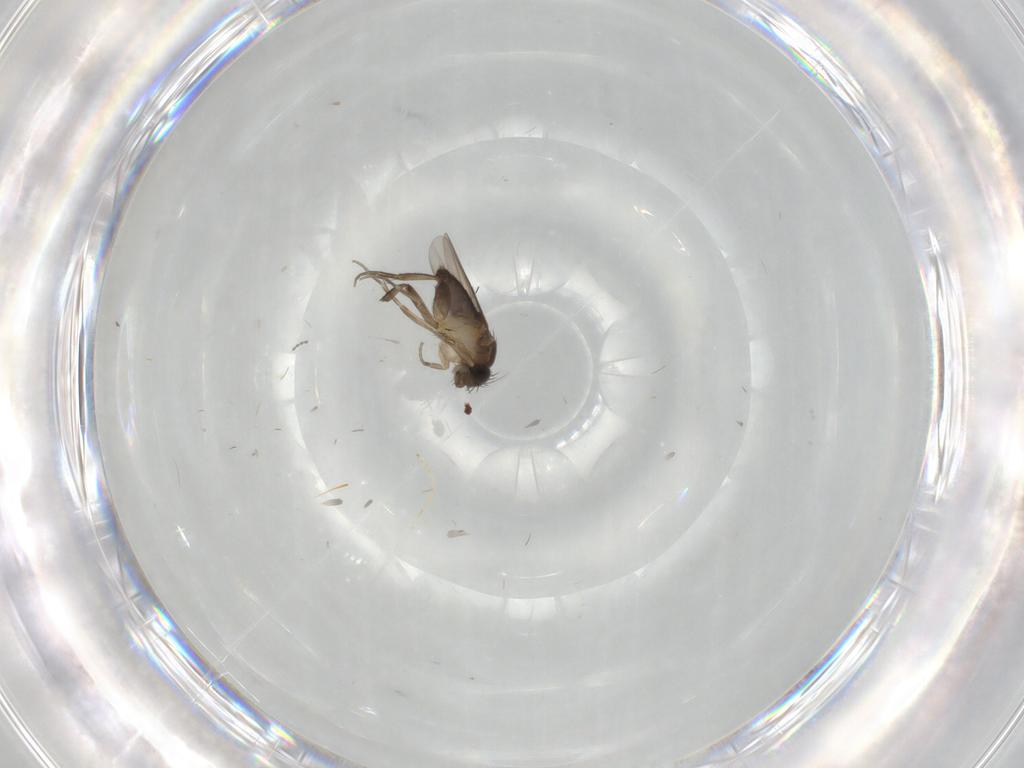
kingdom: Animalia
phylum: Arthropoda
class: Insecta
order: Diptera
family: Phoridae
